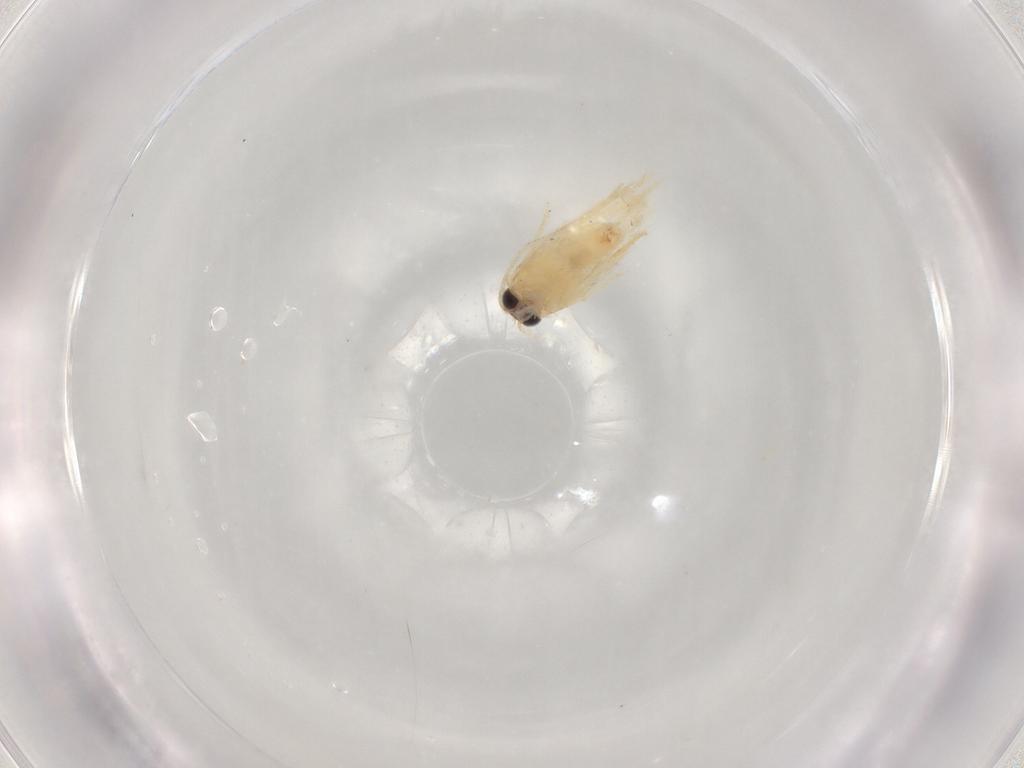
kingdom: Animalia
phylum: Arthropoda
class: Insecta
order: Lepidoptera
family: Nepticulidae
